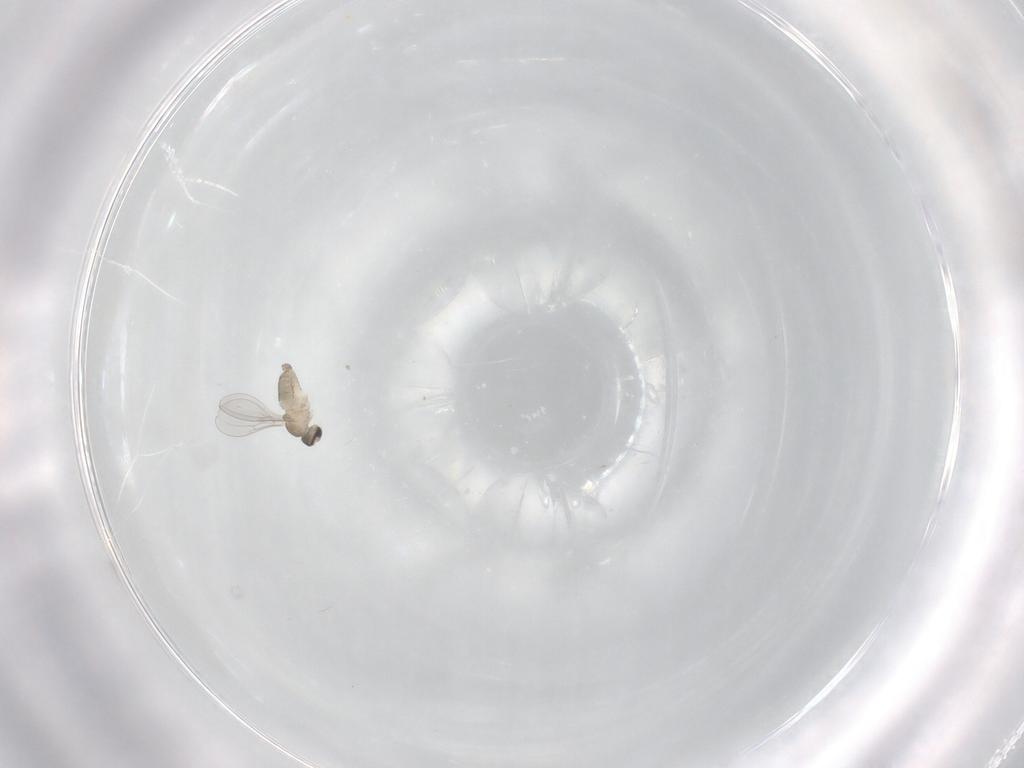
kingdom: Animalia
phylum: Arthropoda
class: Insecta
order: Diptera
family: Cecidomyiidae
